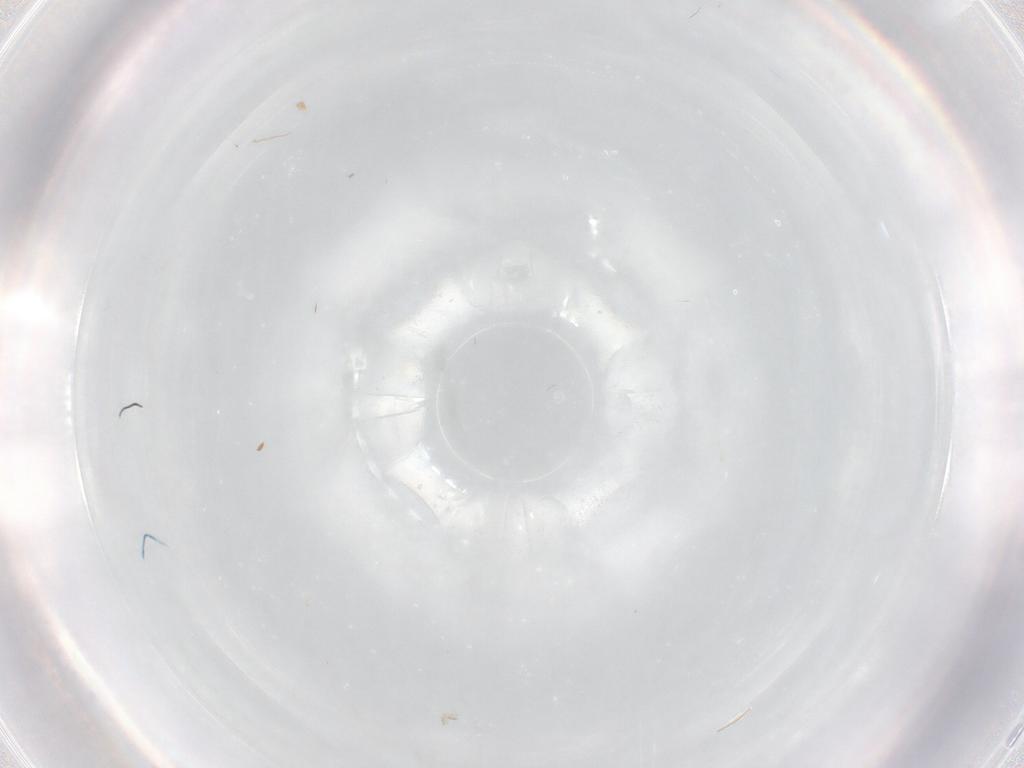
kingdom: Animalia
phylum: Arthropoda
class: Insecta
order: Diptera
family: Chironomidae
